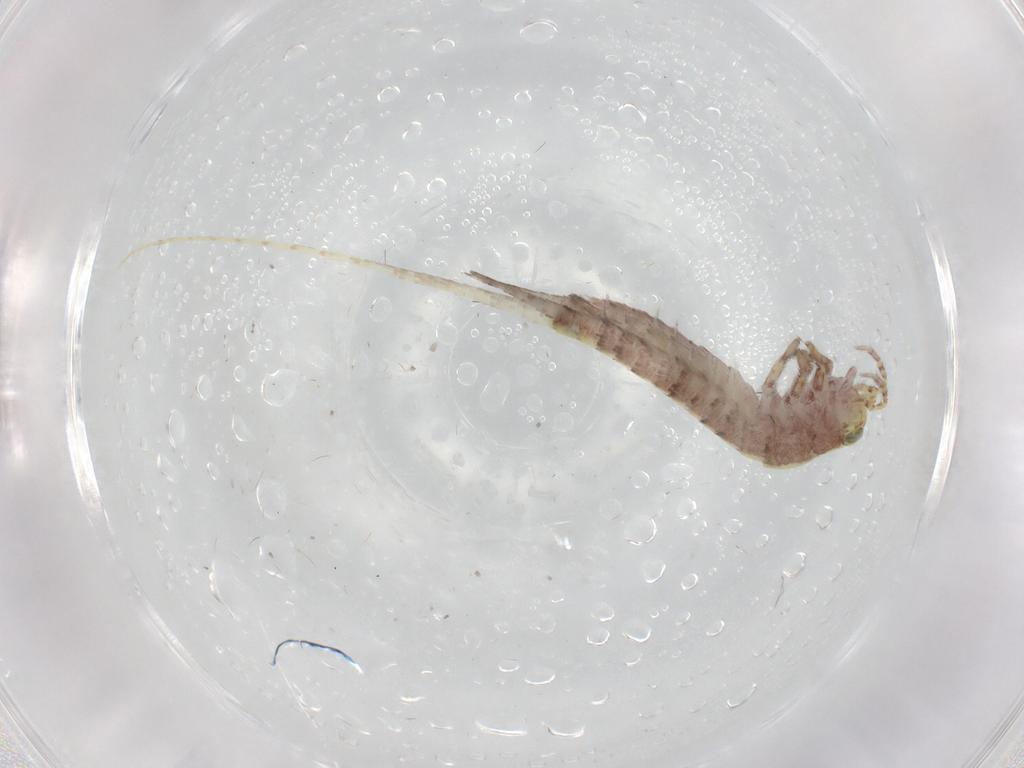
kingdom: Animalia
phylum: Arthropoda
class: Insecta
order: Archaeognatha
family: Machilidae
